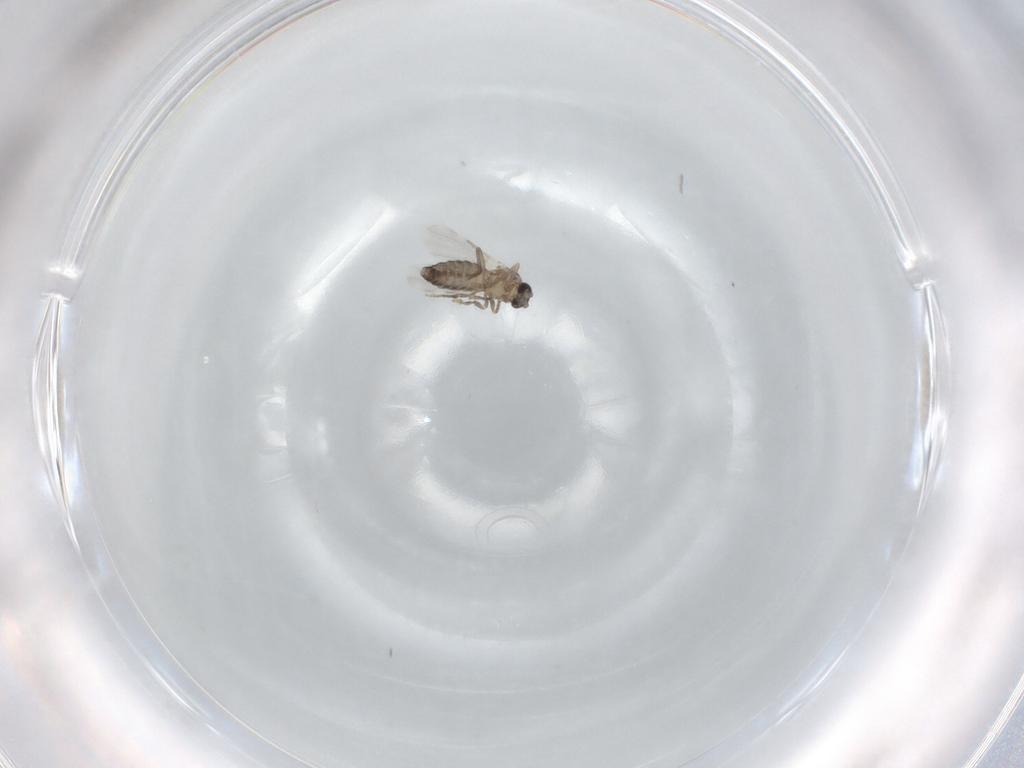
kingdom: Animalia
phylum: Arthropoda
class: Insecta
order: Diptera
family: Ceratopogonidae
